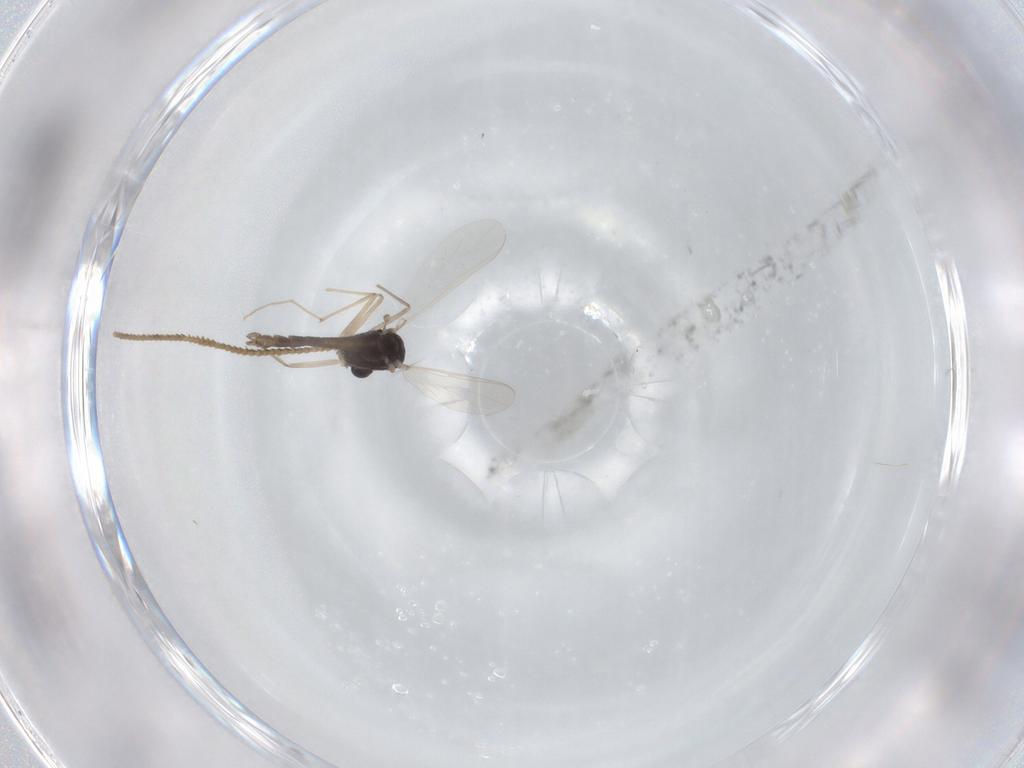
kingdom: Animalia
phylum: Arthropoda
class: Insecta
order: Diptera
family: Chironomidae
